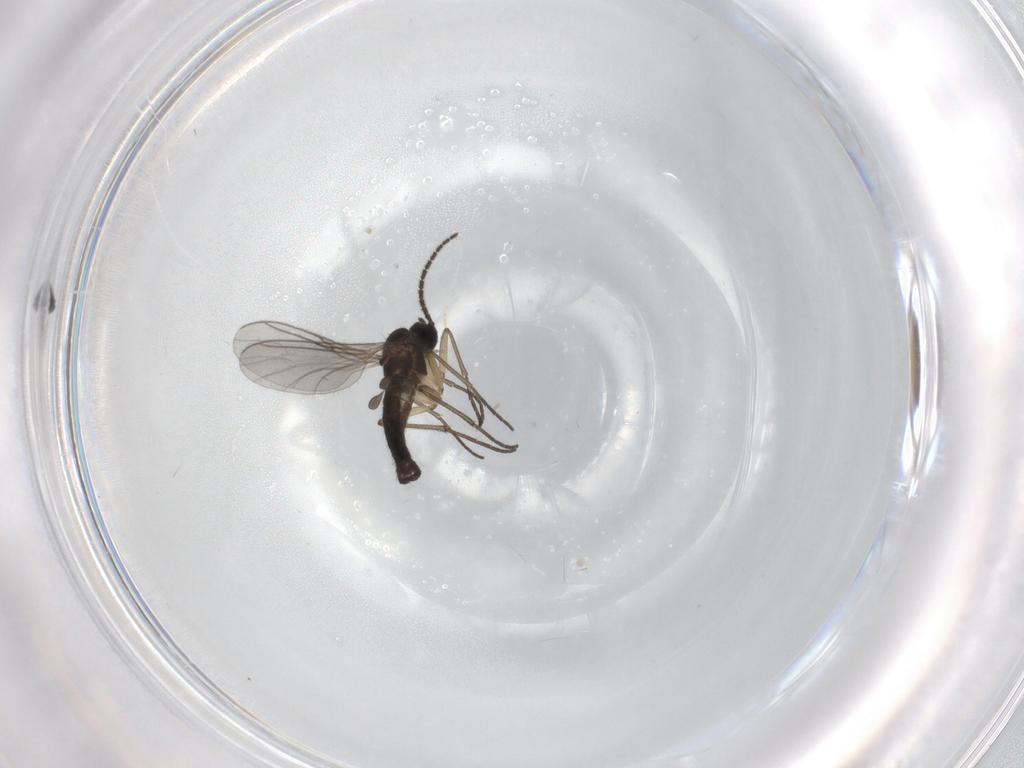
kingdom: Animalia
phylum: Arthropoda
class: Insecta
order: Diptera
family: Sciaridae
